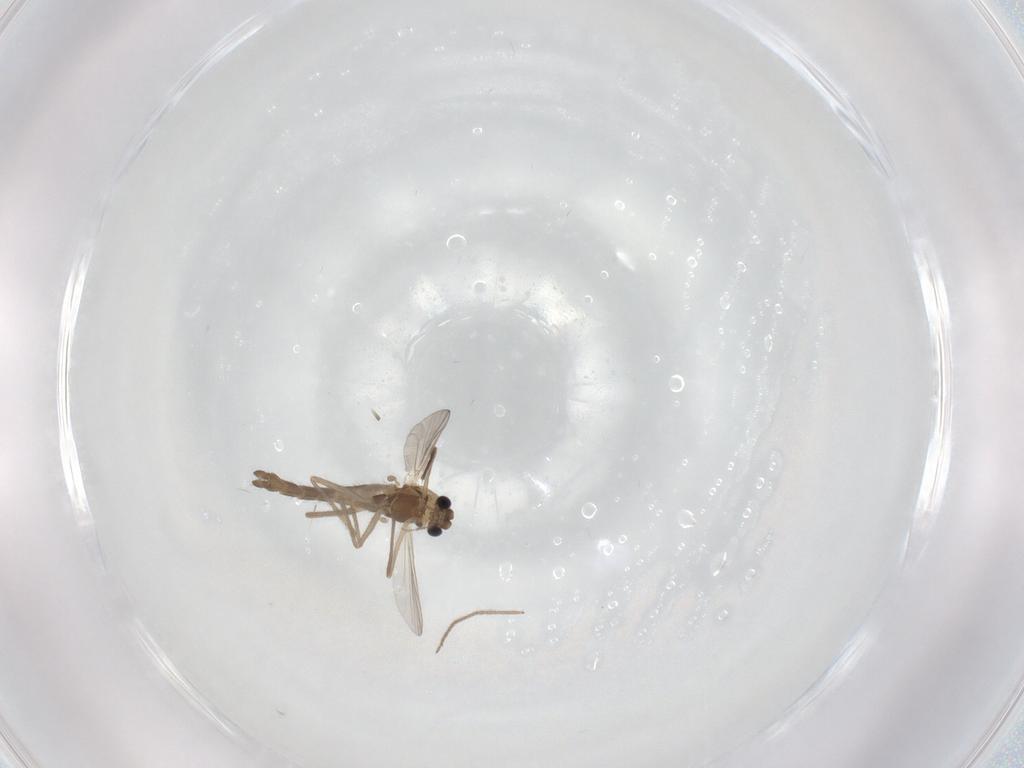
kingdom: Animalia
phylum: Arthropoda
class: Insecta
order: Diptera
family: Chironomidae
